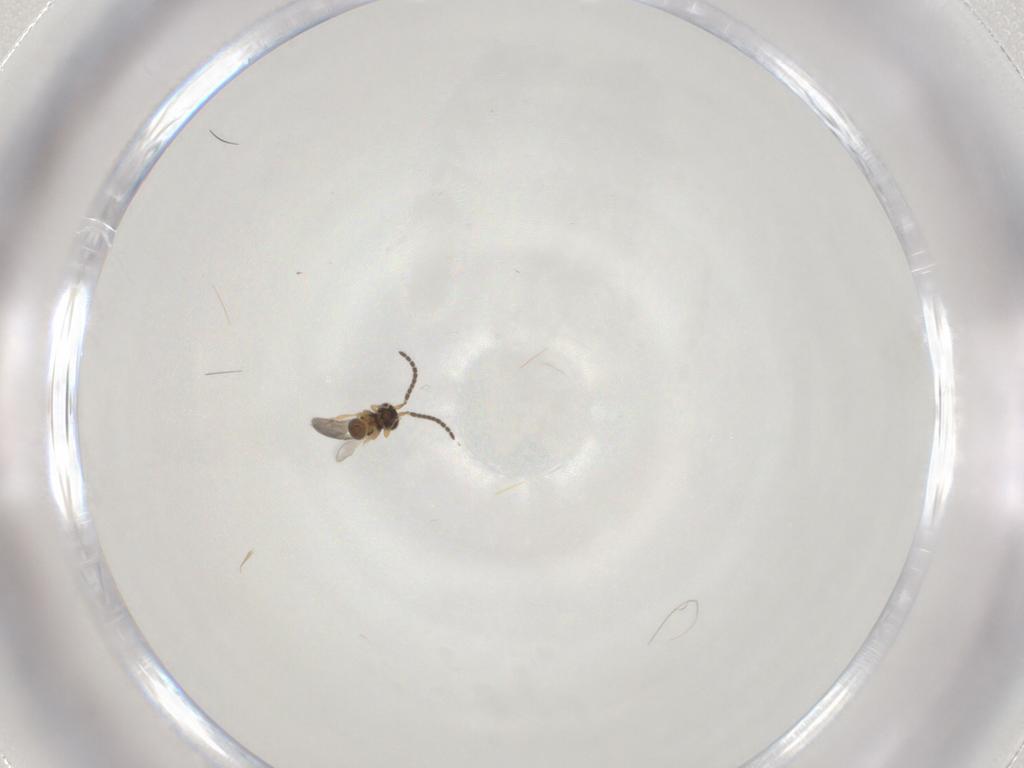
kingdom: Animalia
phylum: Arthropoda
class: Insecta
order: Hymenoptera
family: Ceraphronidae
